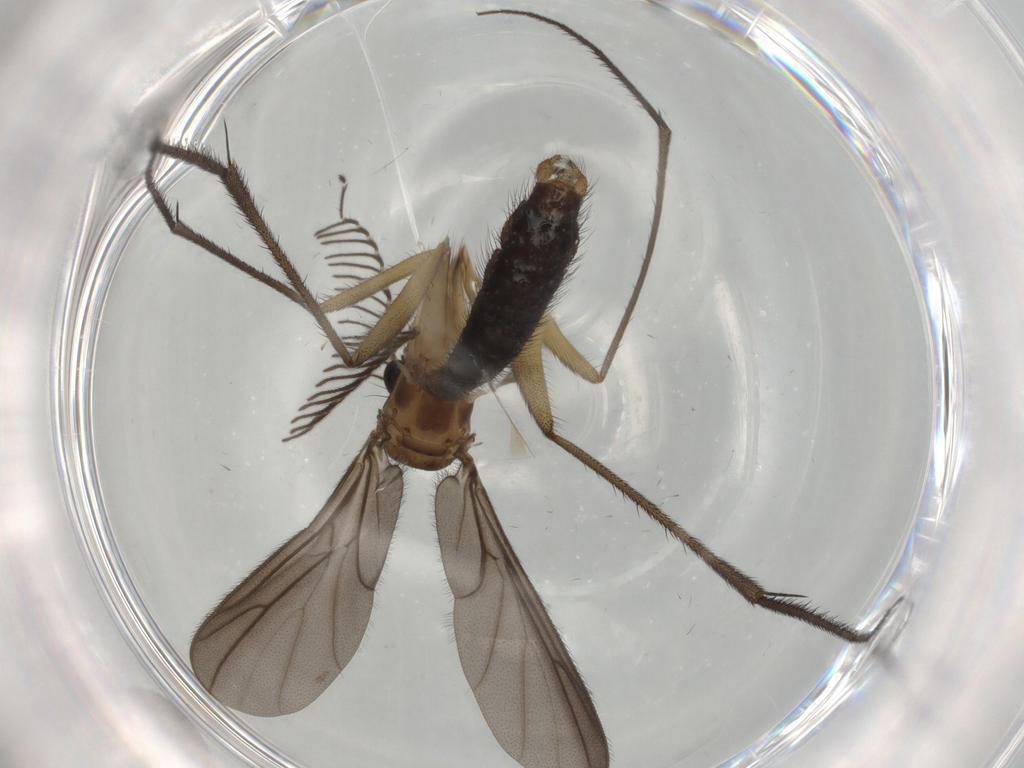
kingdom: Animalia
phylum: Arthropoda
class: Insecta
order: Diptera
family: Ditomyiidae
